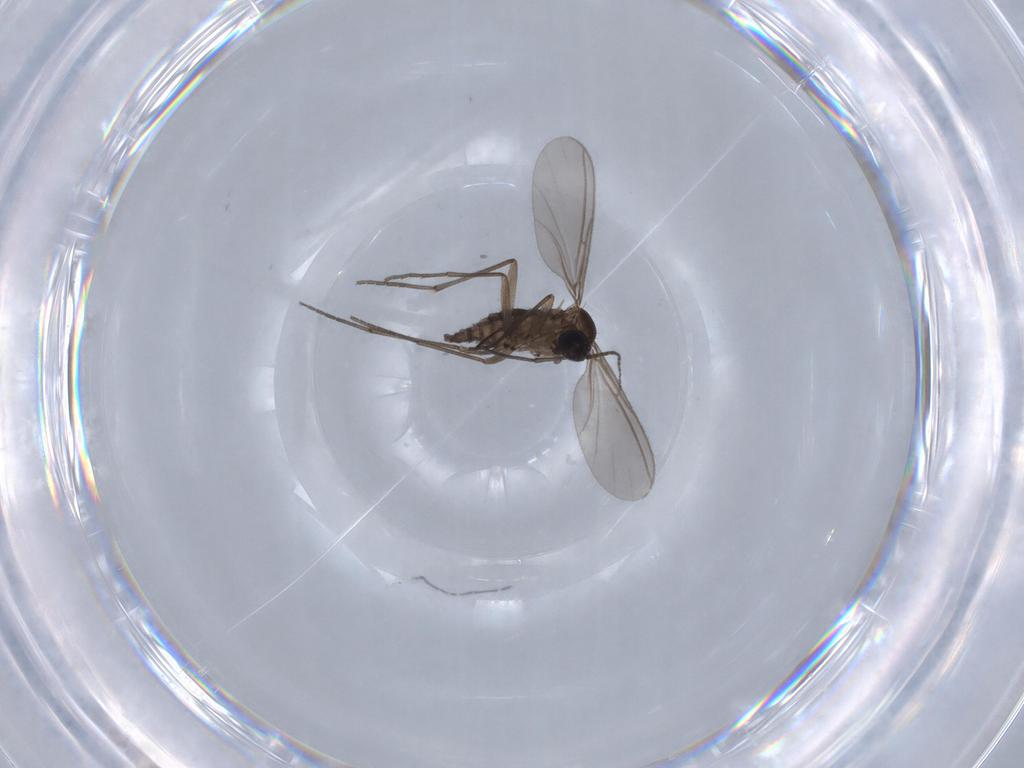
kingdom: Animalia
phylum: Arthropoda
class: Insecta
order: Diptera
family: Sciaridae
